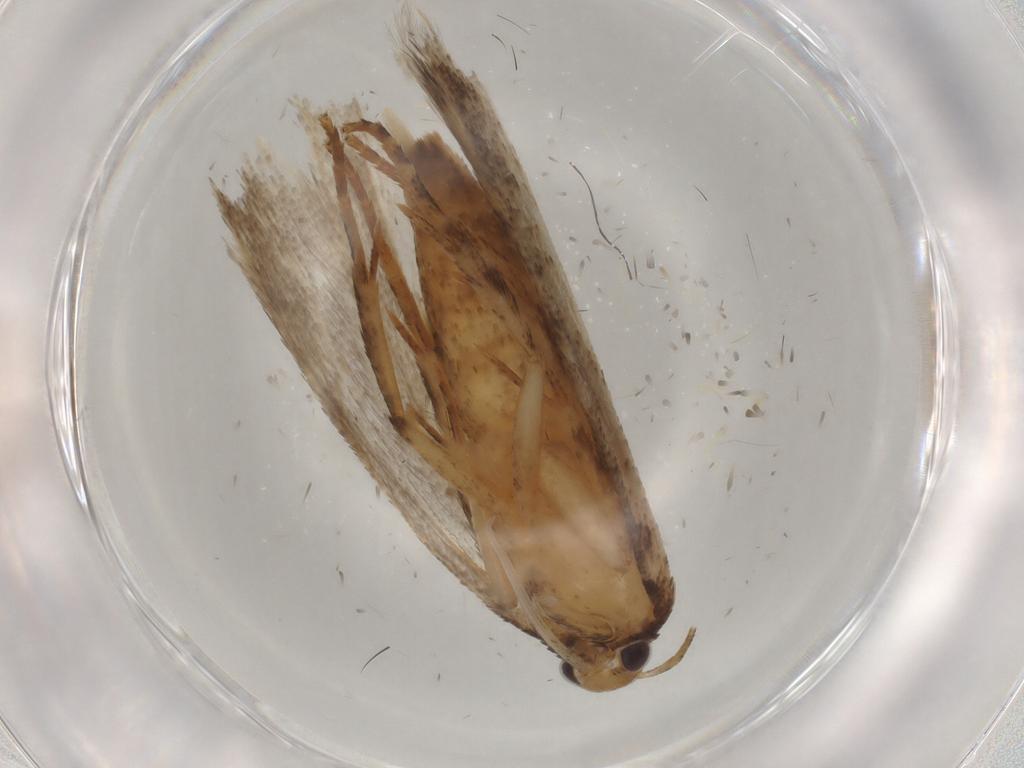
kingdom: Animalia
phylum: Arthropoda
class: Insecta
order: Lepidoptera
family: Gelechiidae
